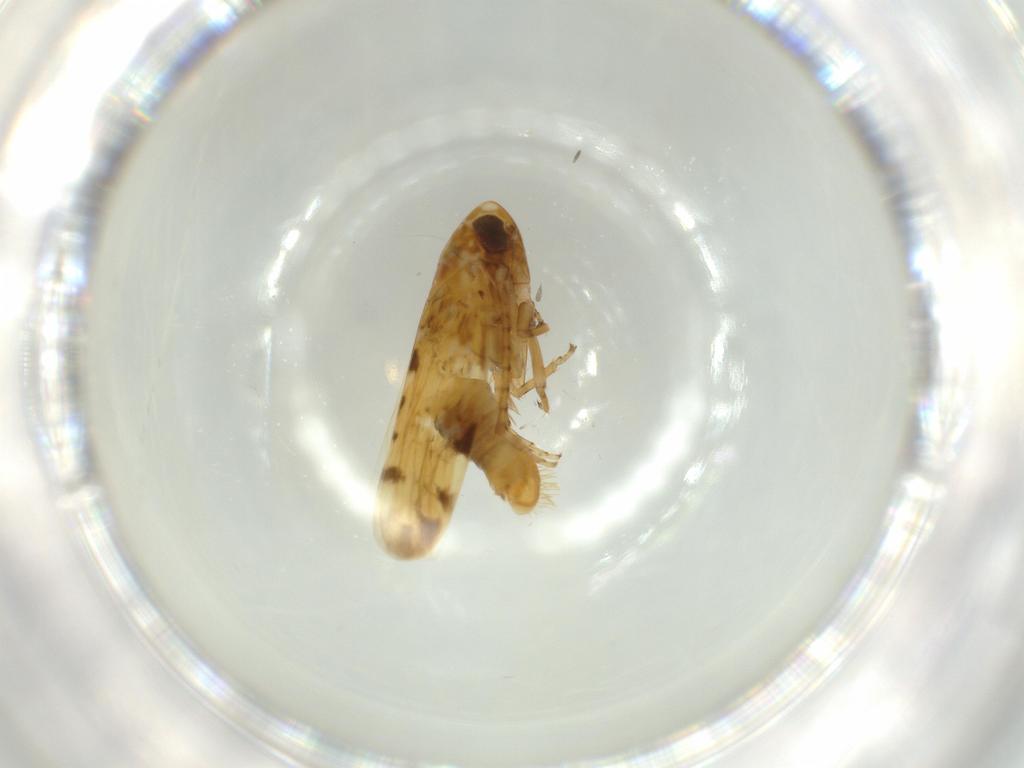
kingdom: Animalia
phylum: Arthropoda
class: Insecta
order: Hemiptera
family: Cicadellidae
